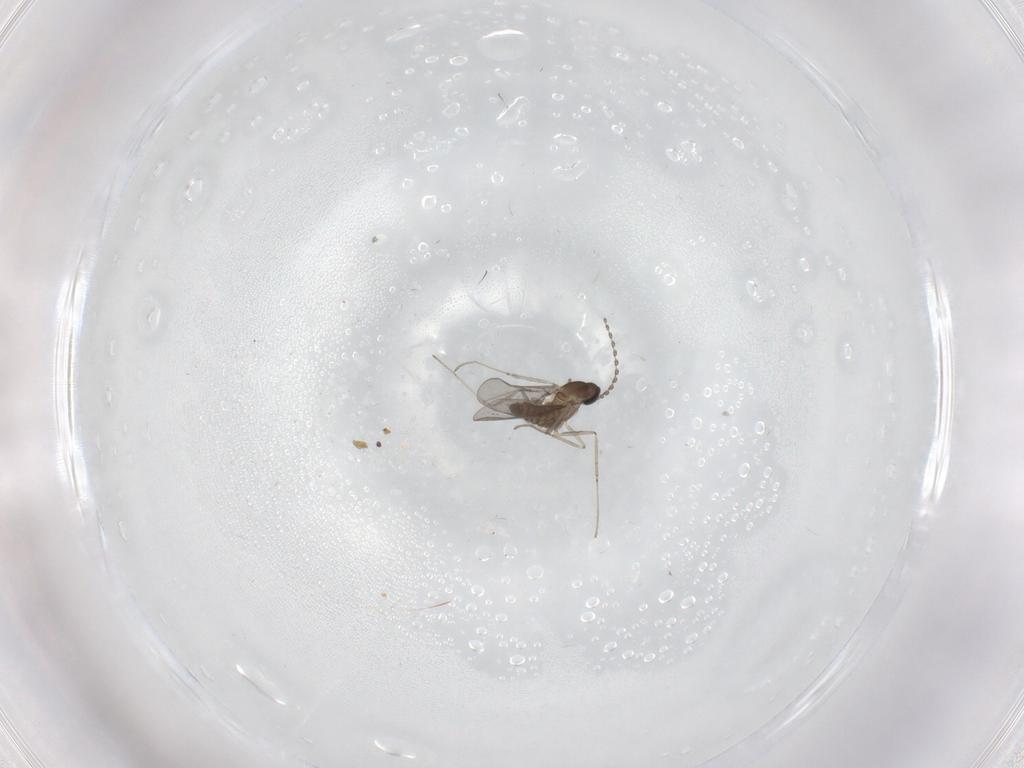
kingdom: Animalia
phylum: Arthropoda
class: Insecta
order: Diptera
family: Cecidomyiidae
